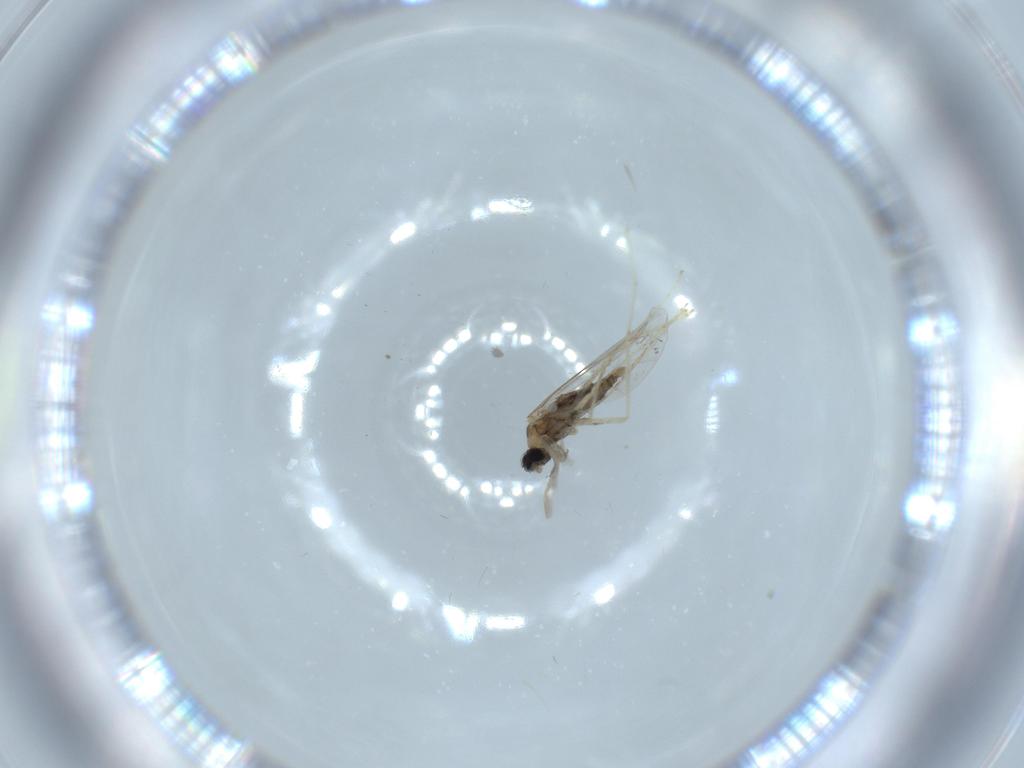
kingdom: Animalia
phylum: Arthropoda
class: Insecta
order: Diptera
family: Cecidomyiidae
